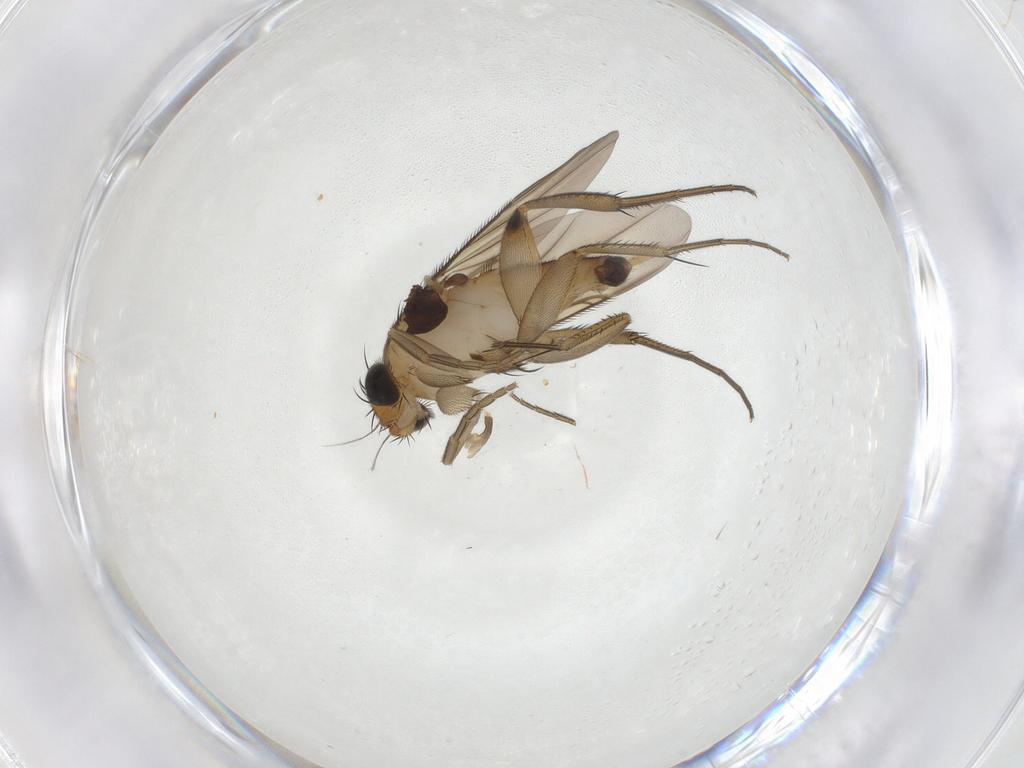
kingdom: Animalia
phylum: Arthropoda
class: Insecta
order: Diptera
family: Phoridae
